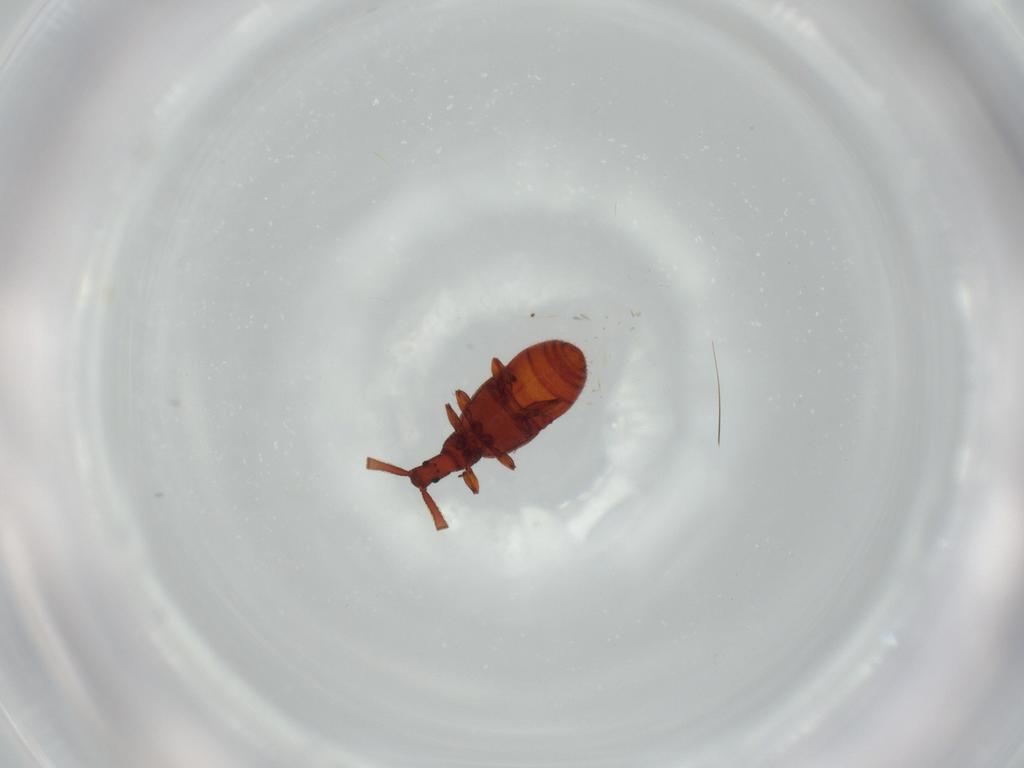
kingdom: Animalia
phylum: Arthropoda
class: Insecta
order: Coleoptera
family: Staphylinidae
